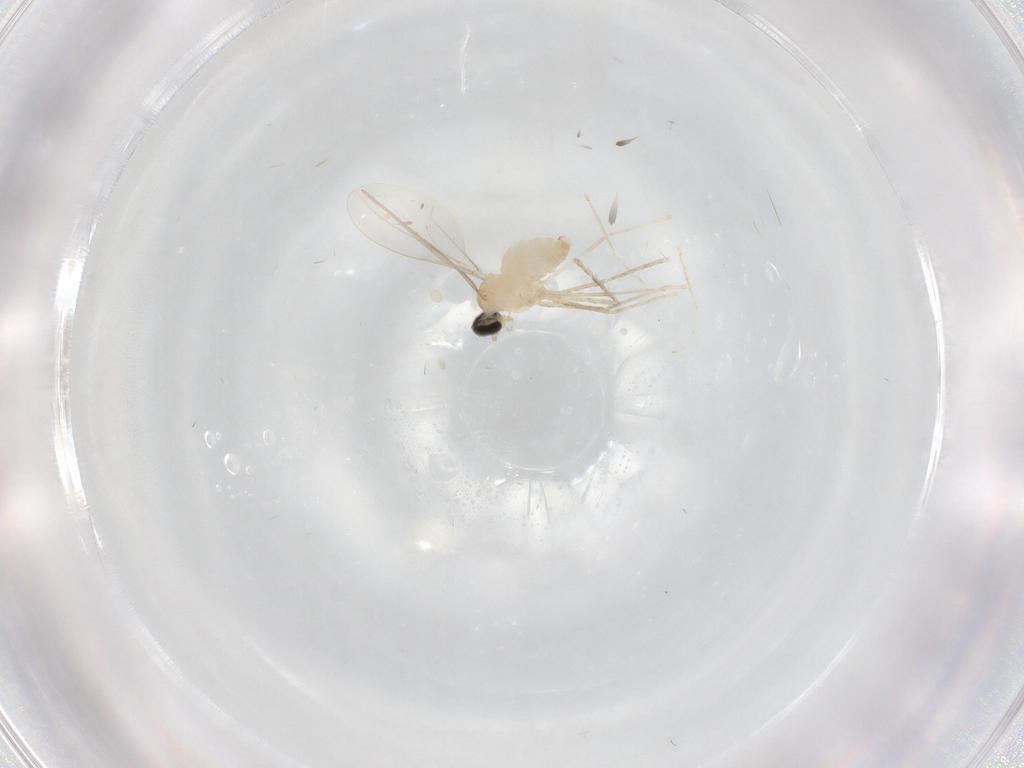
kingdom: Animalia
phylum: Arthropoda
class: Insecta
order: Diptera
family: Cecidomyiidae
